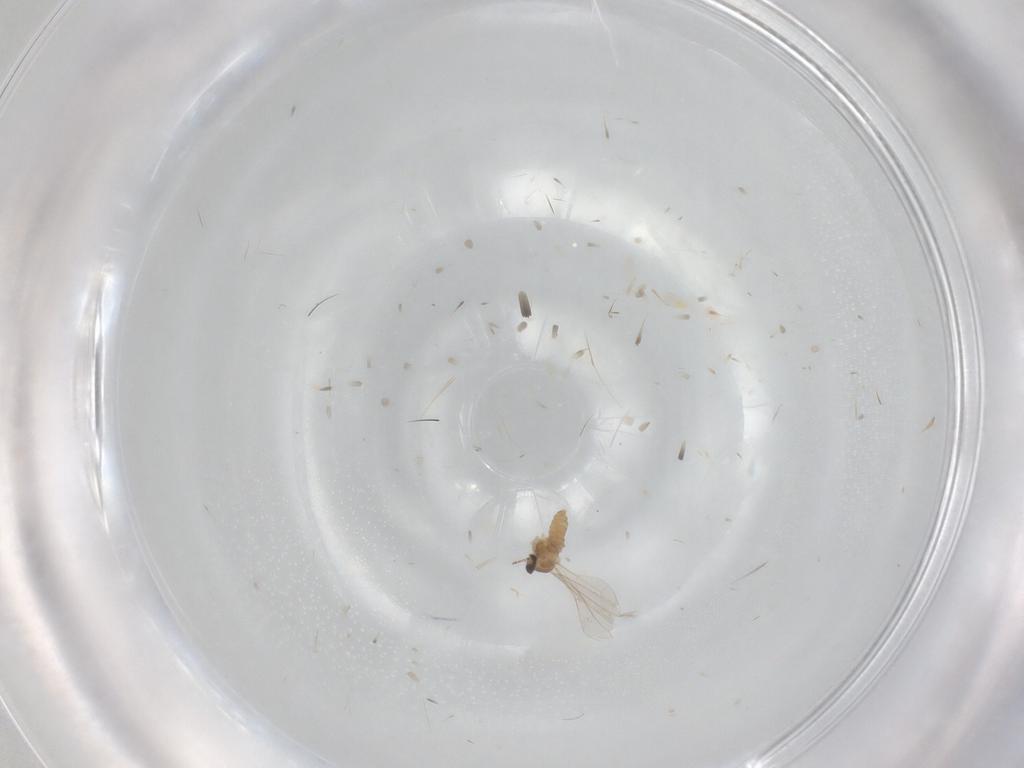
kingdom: Animalia
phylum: Arthropoda
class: Insecta
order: Diptera
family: Cecidomyiidae
